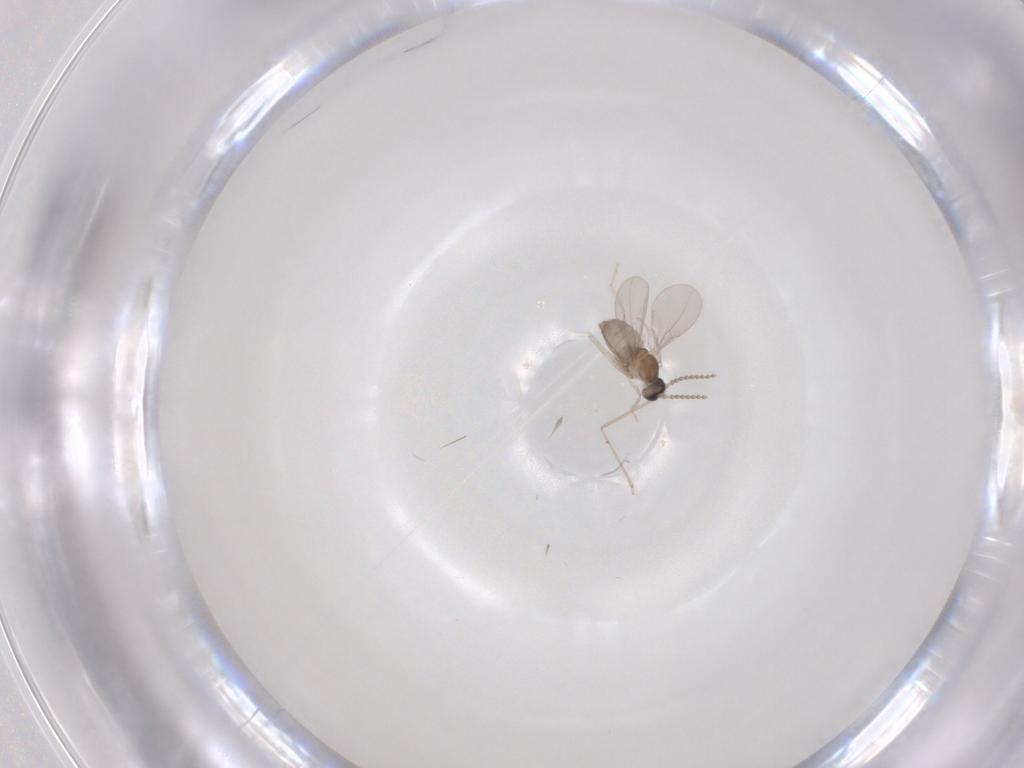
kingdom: Animalia
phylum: Arthropoda
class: Insecta
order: Diptera
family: Cecidomyiidae
